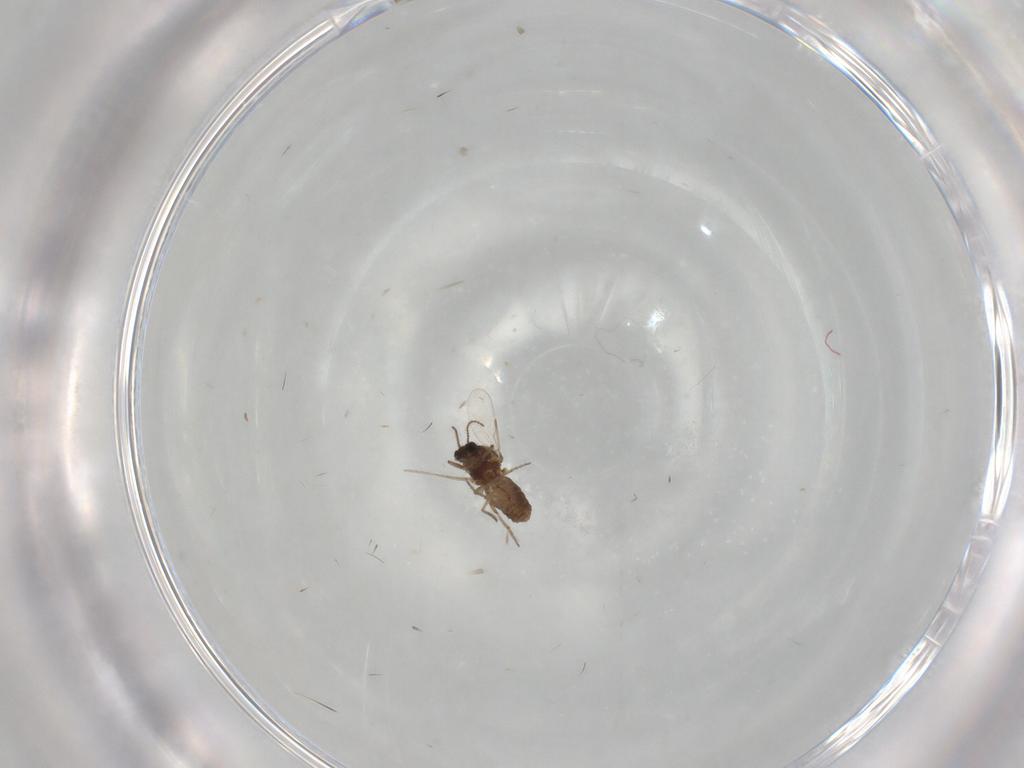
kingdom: Animalia
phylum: Arthropoda
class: Insecta
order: Diptera
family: Ceratopogonidae
